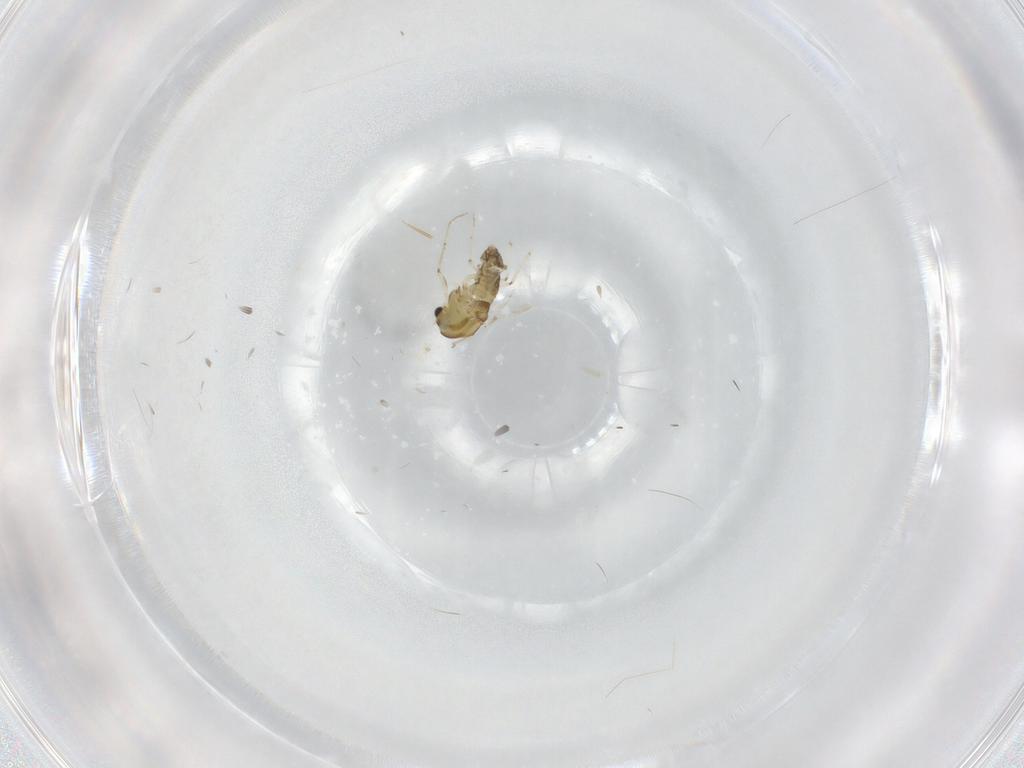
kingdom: Animalia
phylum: Arthropoda
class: Insecta
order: Diptera
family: Chironomidae
